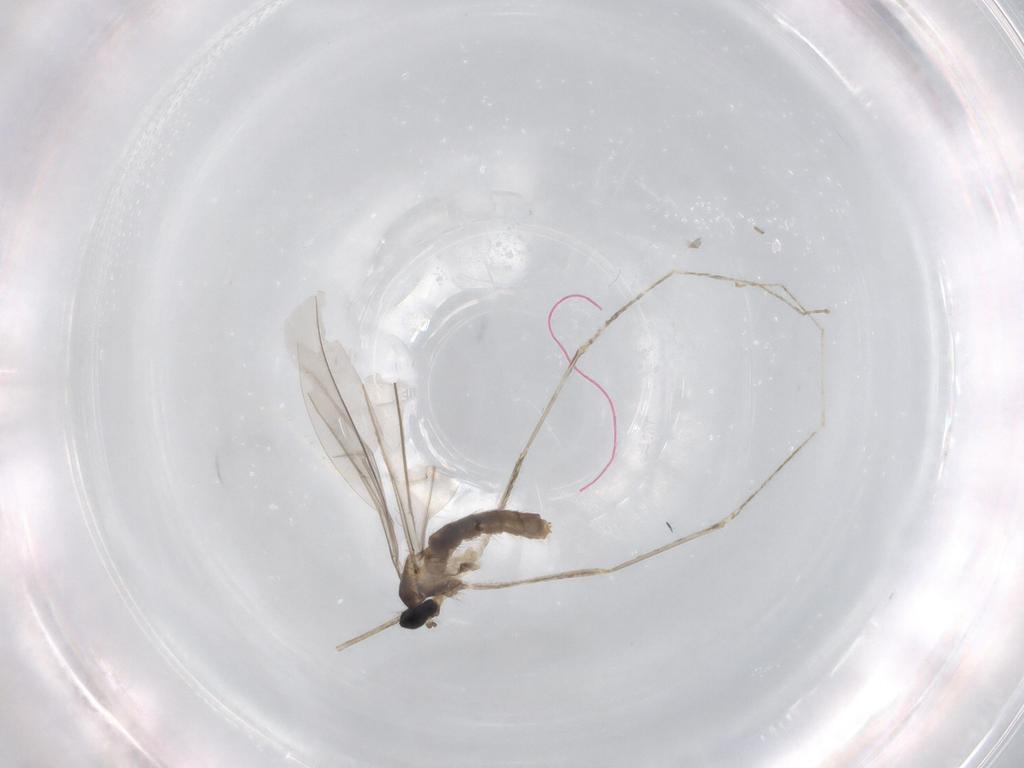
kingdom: Animalia
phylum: Arthropoda
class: Insecta
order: Diptera
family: Cecidomyiidae
